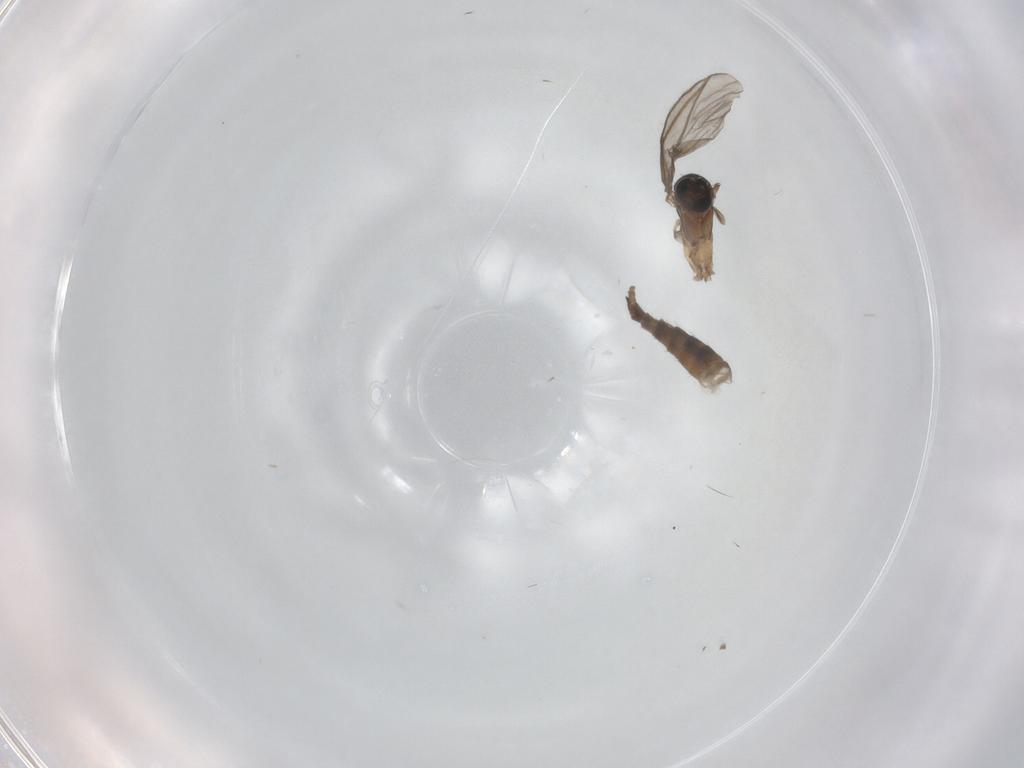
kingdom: Animalia
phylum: Arthropoda
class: Insecta
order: Diptera
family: Sciaridae
